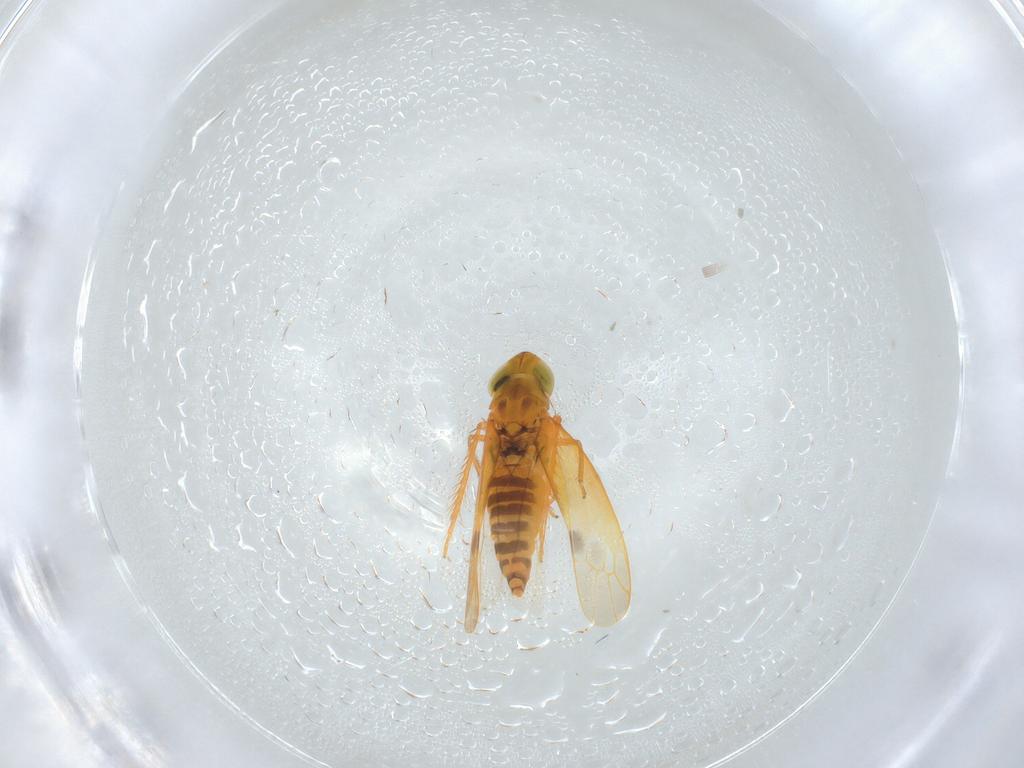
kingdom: Animalia
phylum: Arthropoda
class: Insecta
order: Hemiptera
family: Cicadellidae
